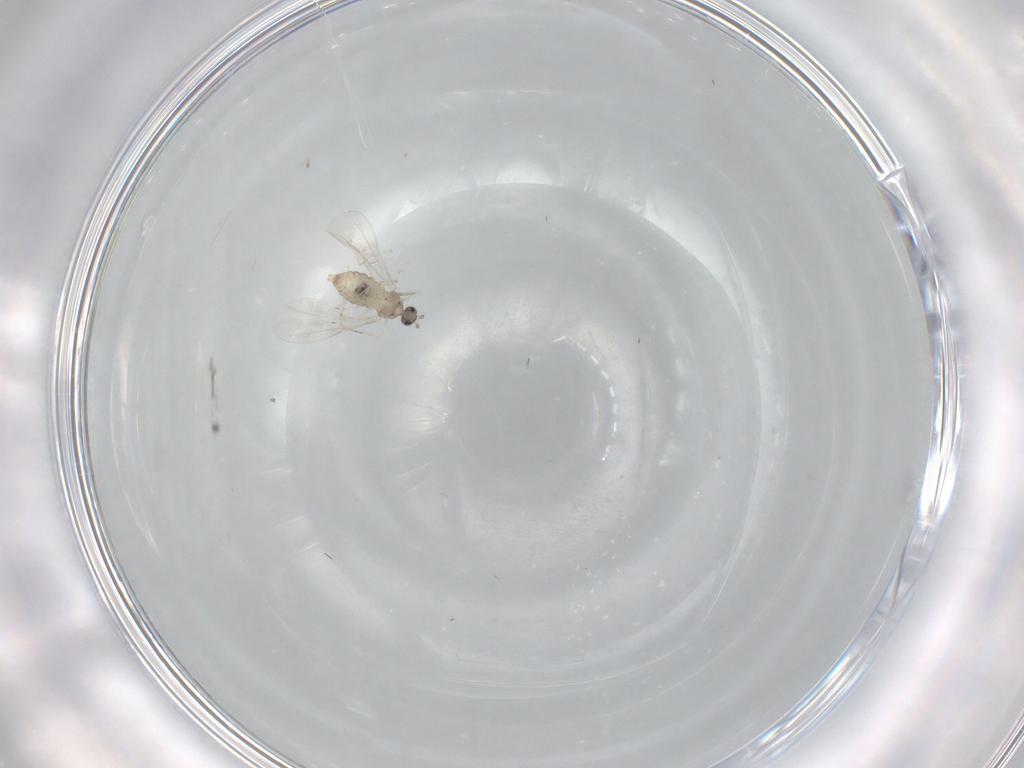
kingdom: Animalia
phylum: Arthropoda
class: Insecta
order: Diptera
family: Cecidomyiidae
